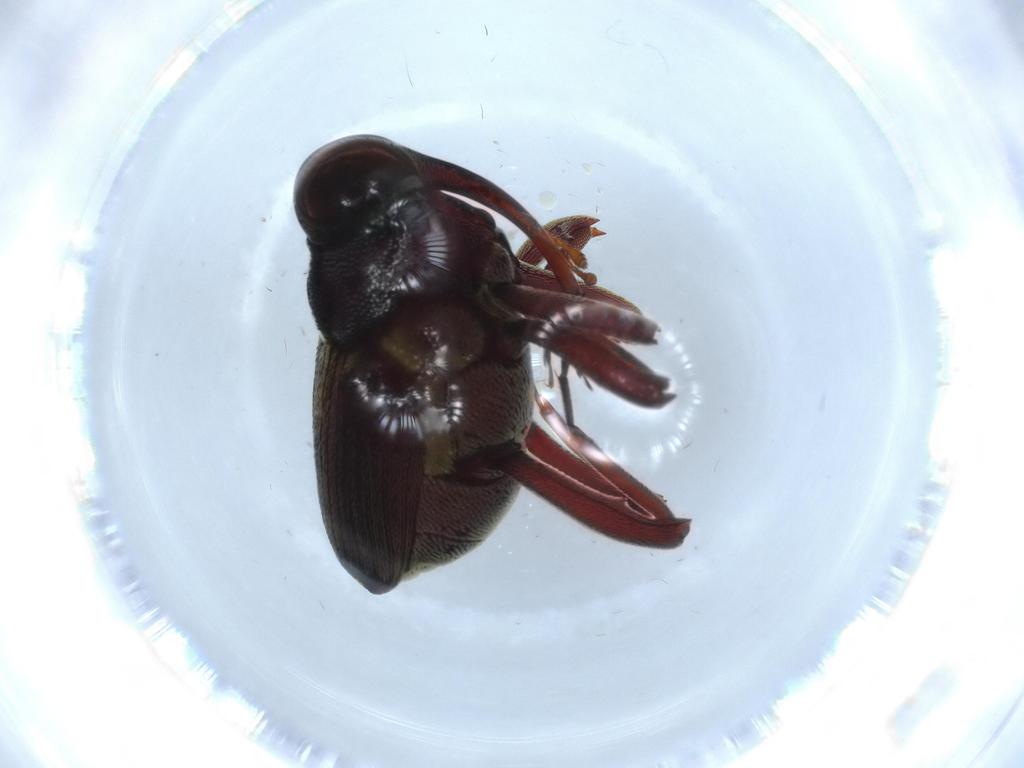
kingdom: Animalia
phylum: Arthropoda
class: Insecta
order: Coleoptera
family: Curculionidae
